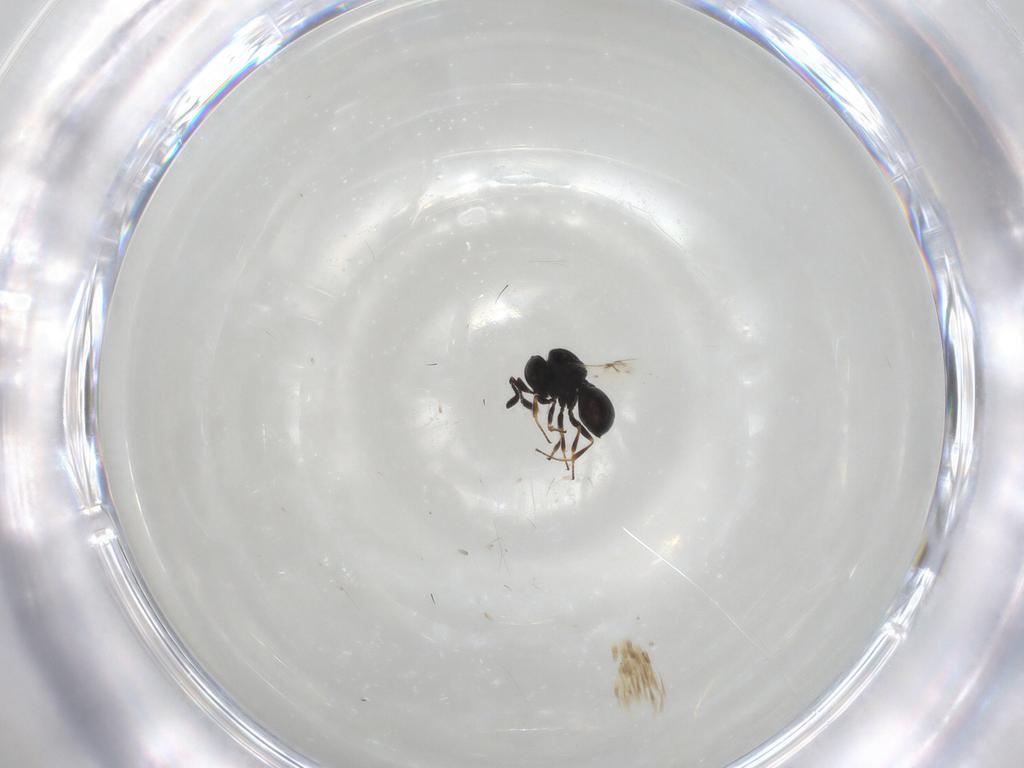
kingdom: Animalia
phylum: Arthropoda
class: Insecta
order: Hymenoptera
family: Scelionidae
